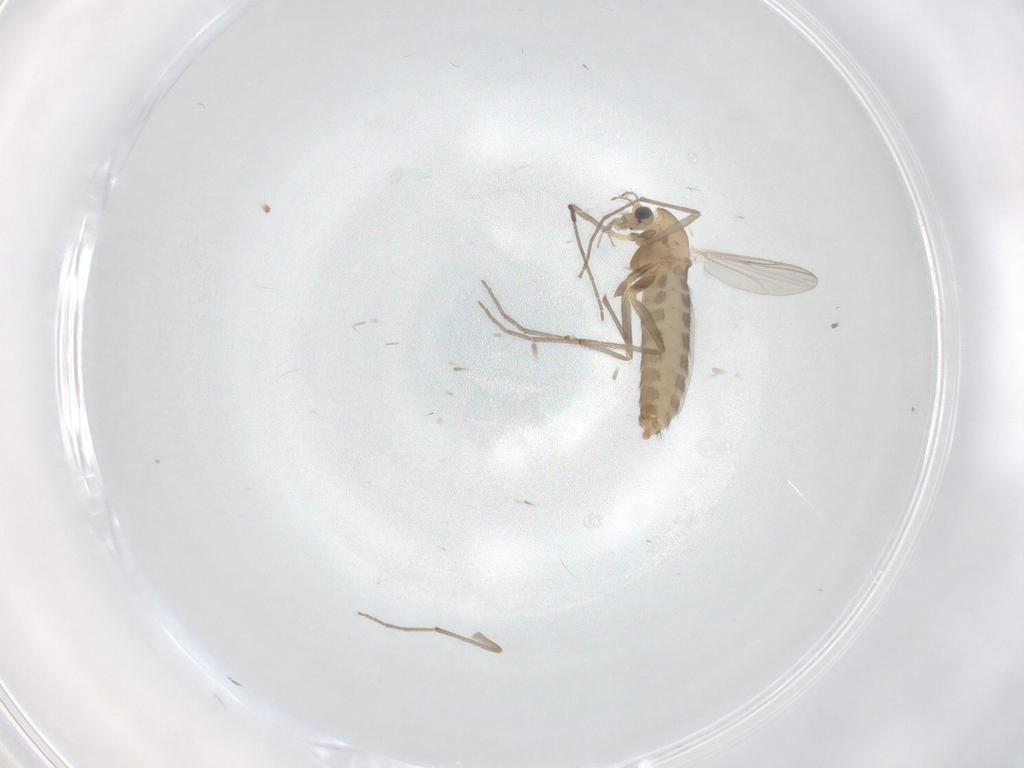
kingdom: Animalia
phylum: Arthropoda
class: Insecta
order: Diptera
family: Chironomidae
